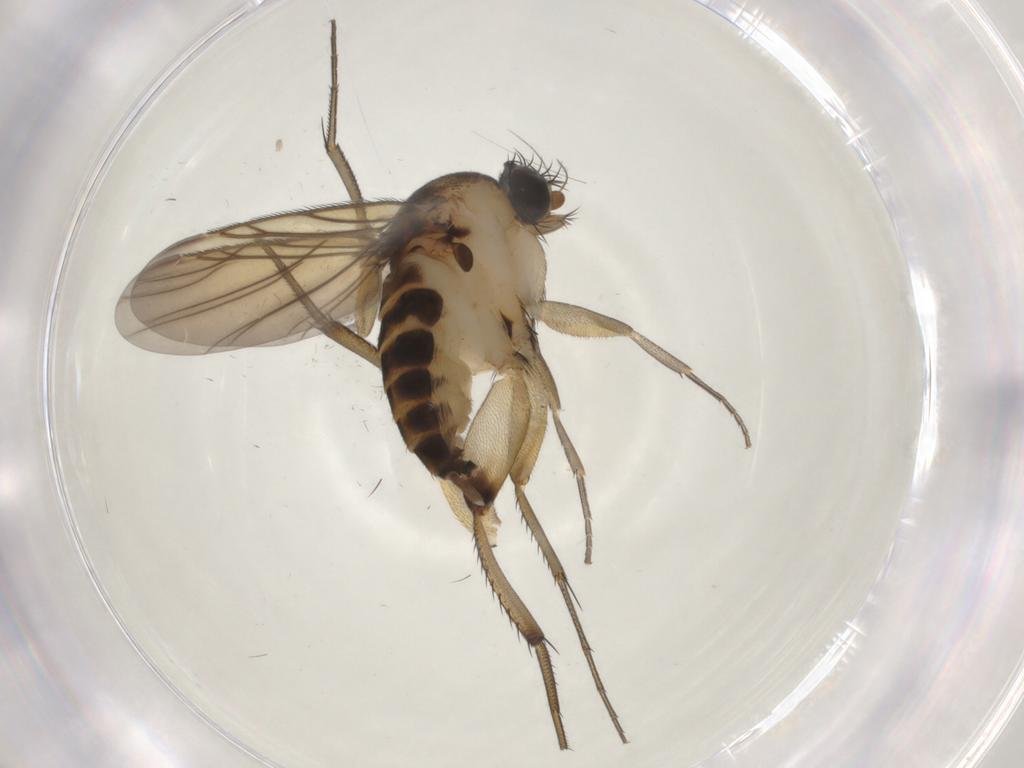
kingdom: Animalia
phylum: Arthropoda
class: Insecta
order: Diptera
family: Phoridae
